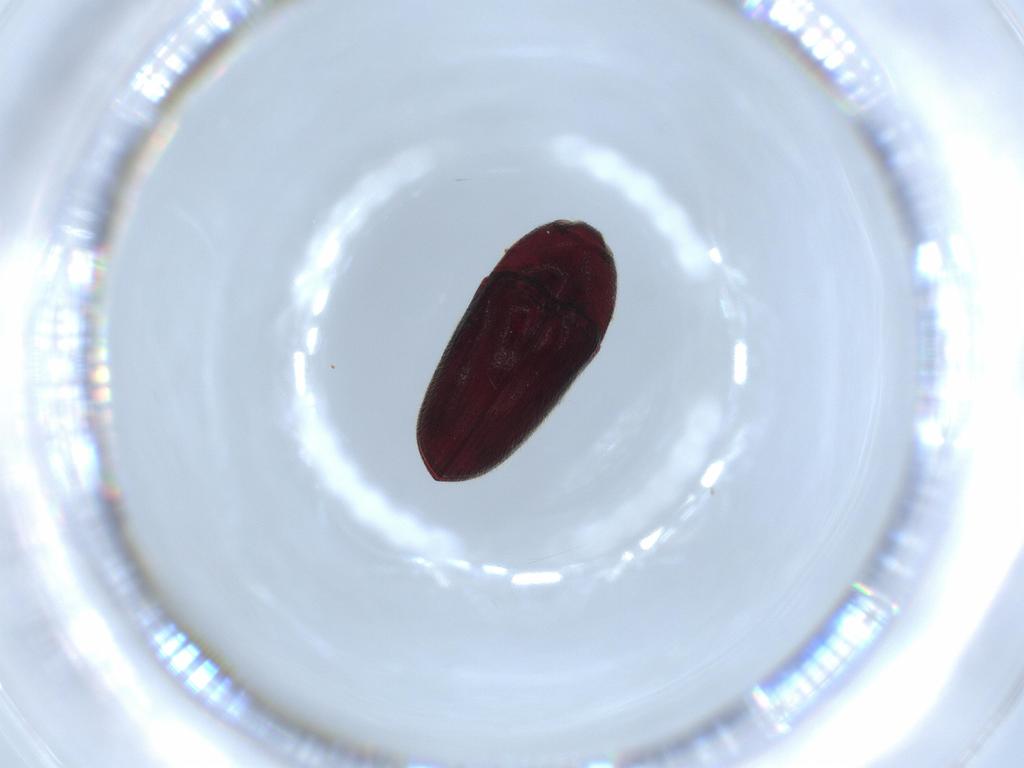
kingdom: Animalia
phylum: Arthropoda
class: Insecta
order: Coleoptera
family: Throscidae
